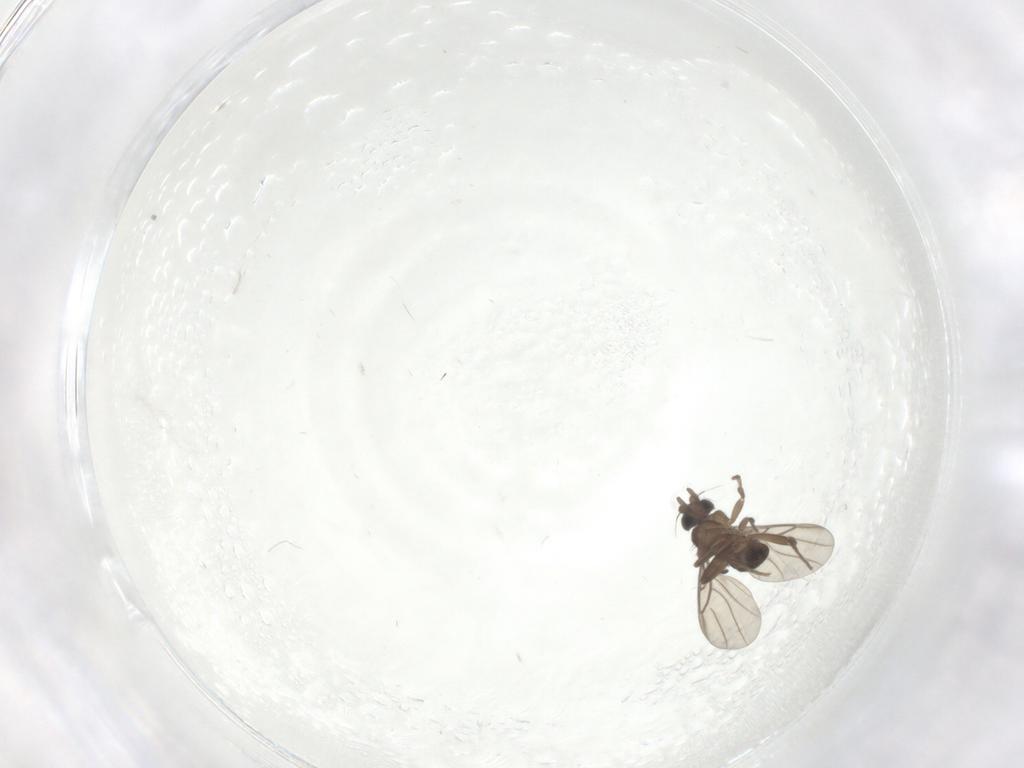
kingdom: Animalia
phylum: Arthropoda
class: Insecta
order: Diptera
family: Phoridae
